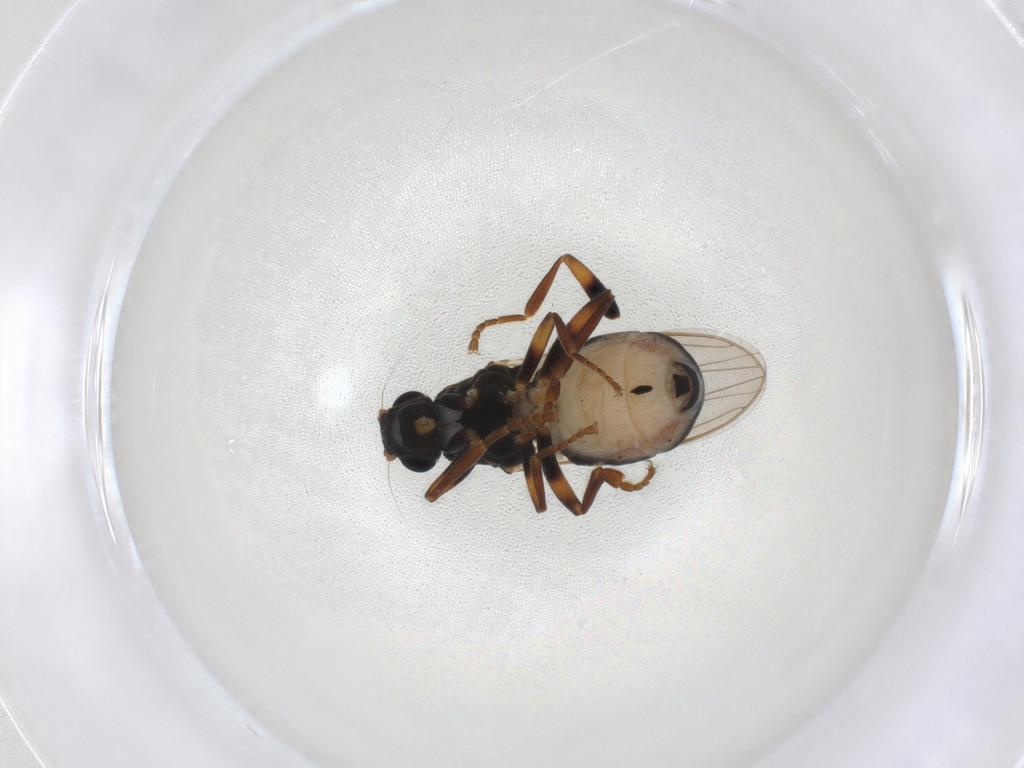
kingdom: Animalia
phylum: Arthropoda
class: Insecta
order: Diptera
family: Sphaeroceridae
